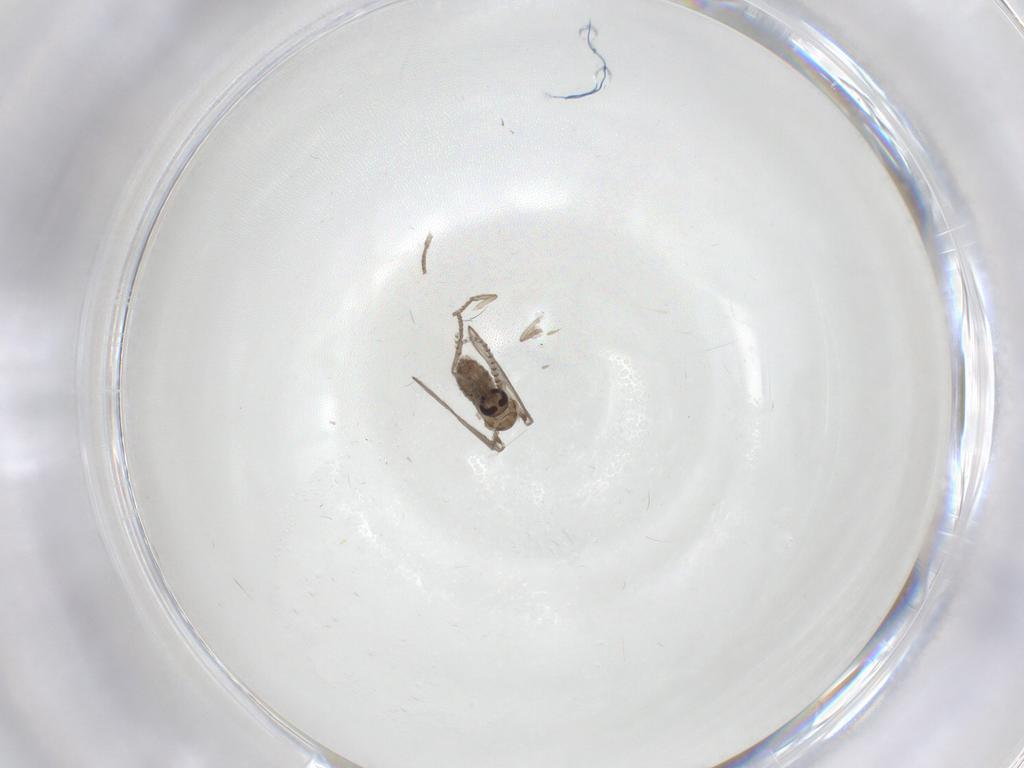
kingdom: Animalia
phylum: Arthropoda
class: Insecta
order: Diptera
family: Psychodidae
